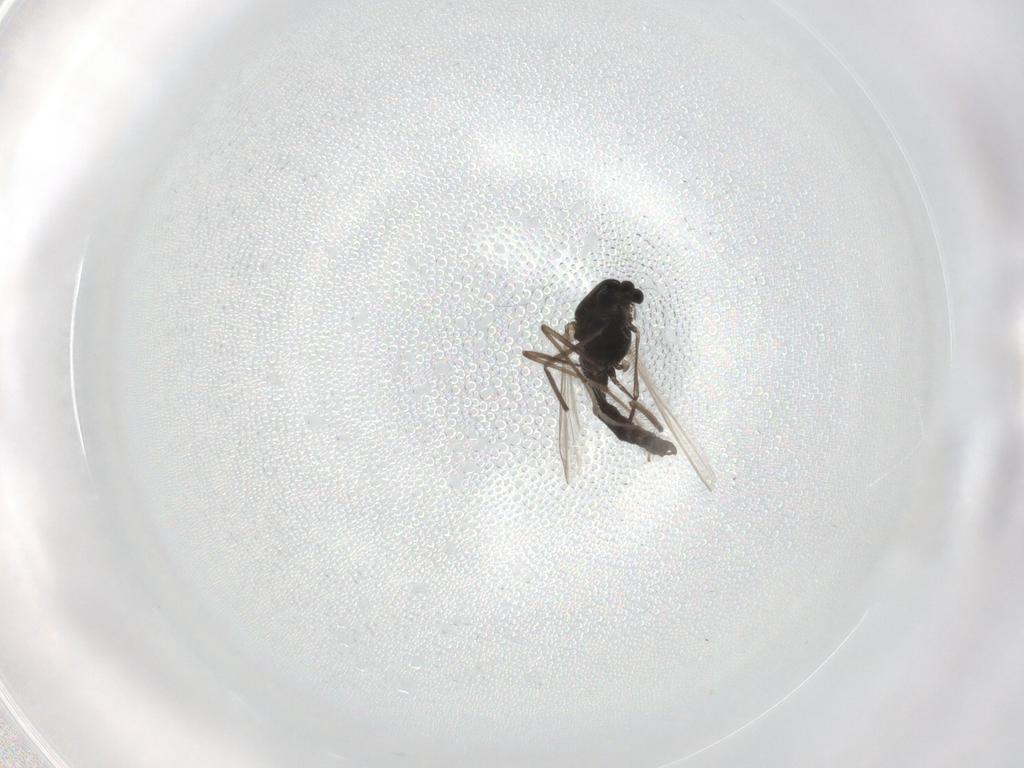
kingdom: Animalia
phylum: Arthropoda
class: Insecta
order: Diptera
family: Chironomidae
